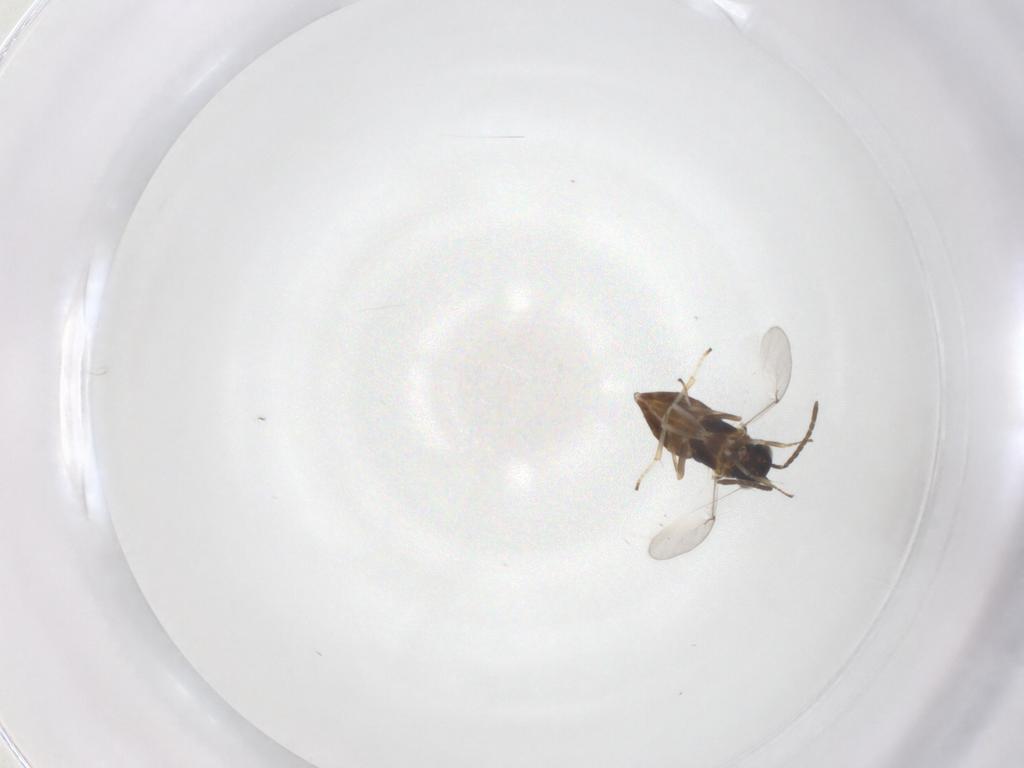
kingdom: Animalia
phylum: Arthropoda
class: Insecta
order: Hymenoptera
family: Encyrtidae
